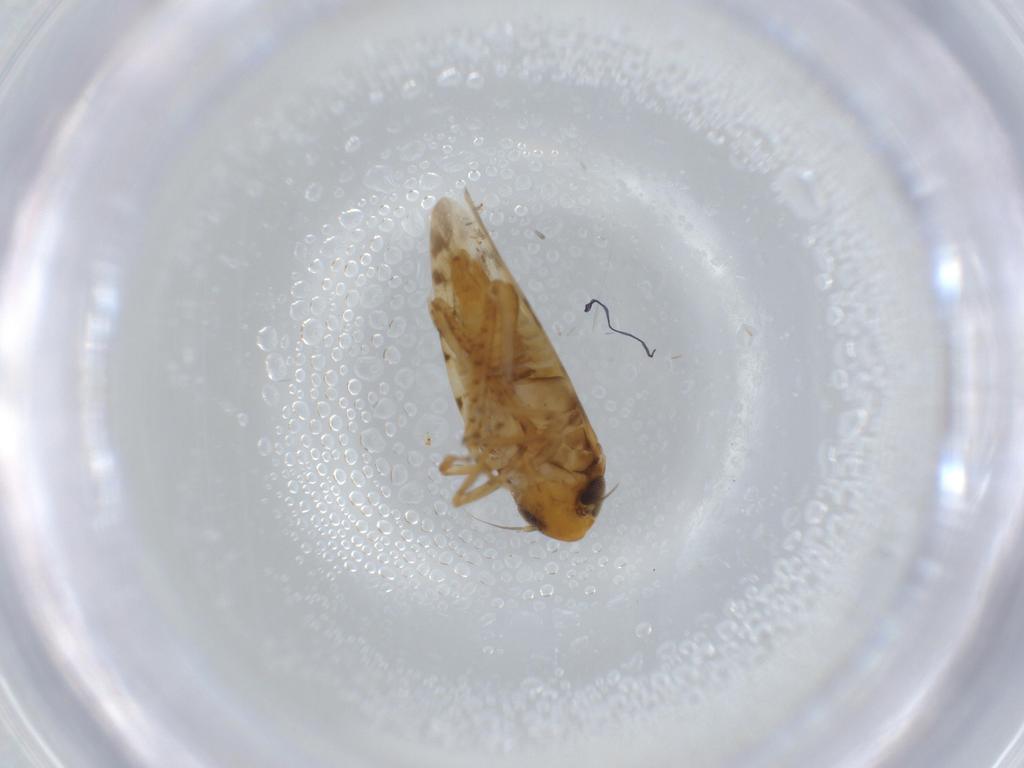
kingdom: Animalia
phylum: Arthropoda
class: Insecta
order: Hemiptera
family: Cicadellidae
